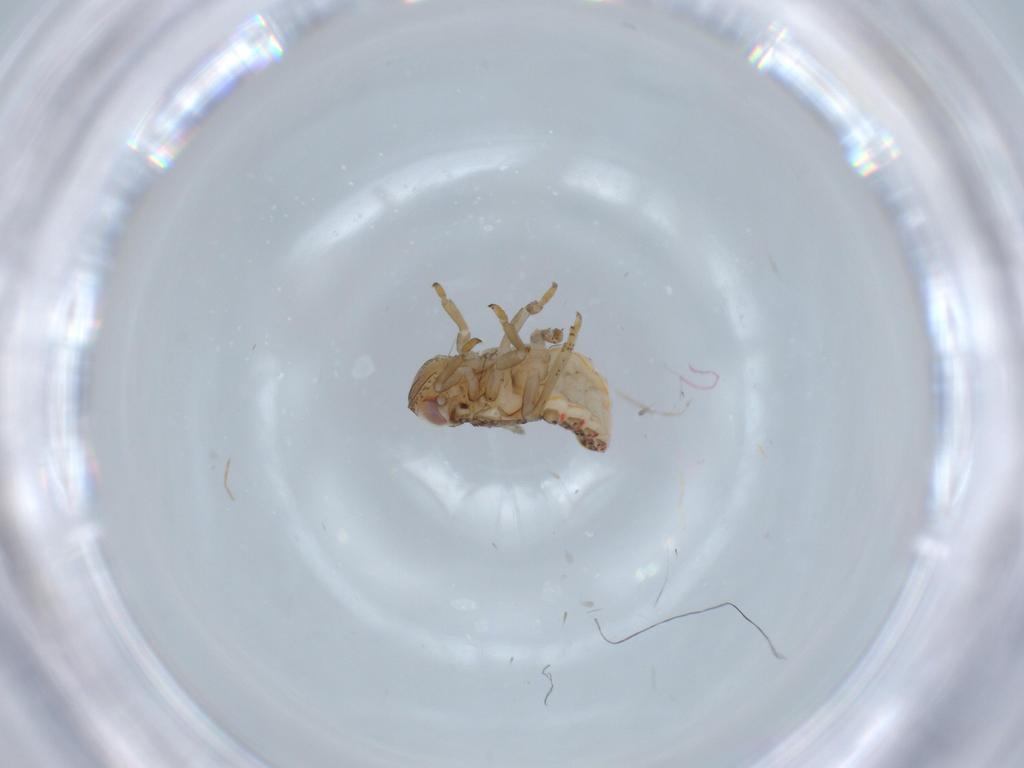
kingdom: Animalia
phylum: Arthropoda
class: Insecta
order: Hemiptera
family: Issidae
